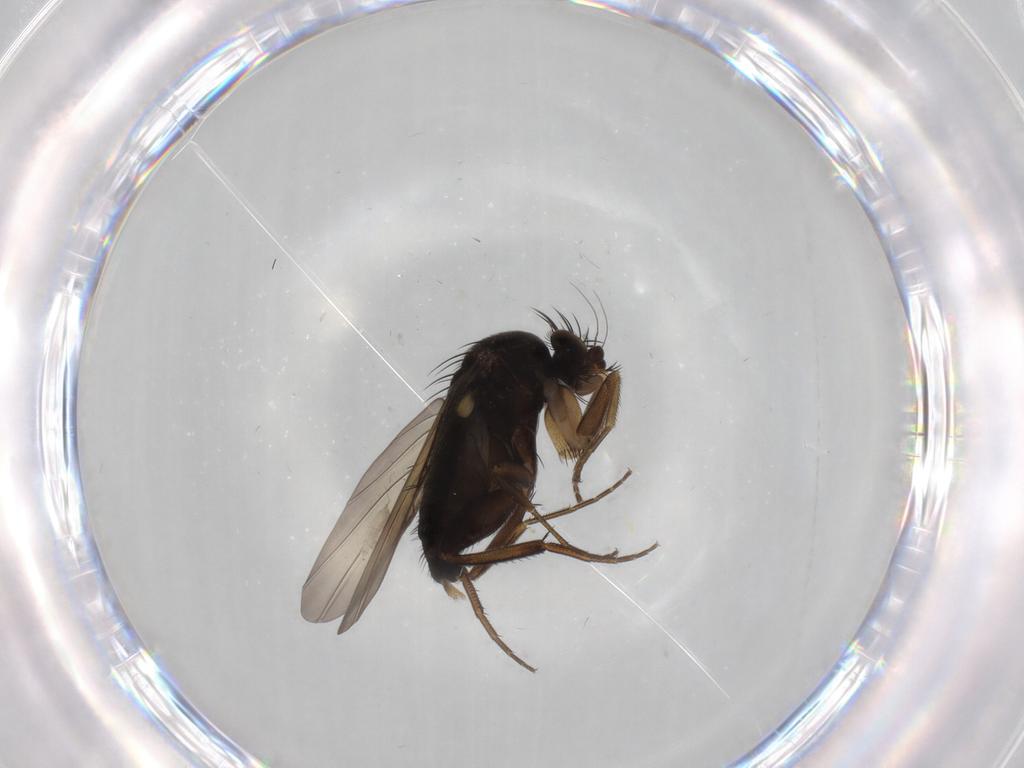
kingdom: Animalia
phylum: Arthropoda
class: Insecta
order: Diptera
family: Phoridae
